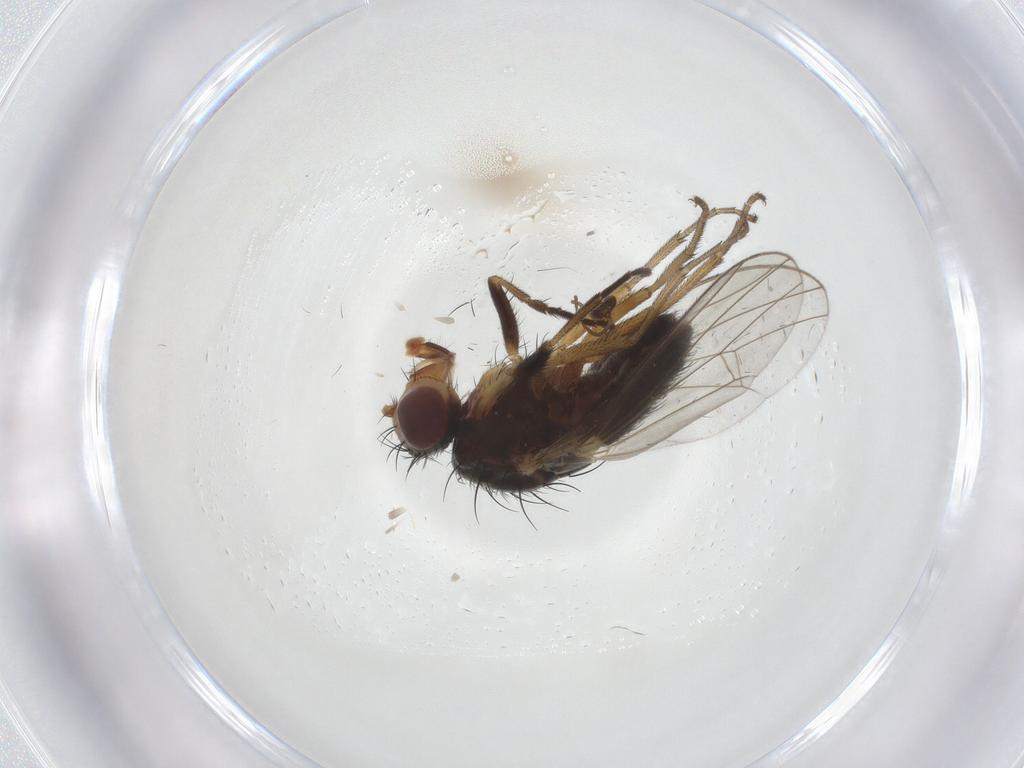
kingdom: Animalia
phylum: Arthropoda
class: Insecta
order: Diptera
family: Heleomyzidae
